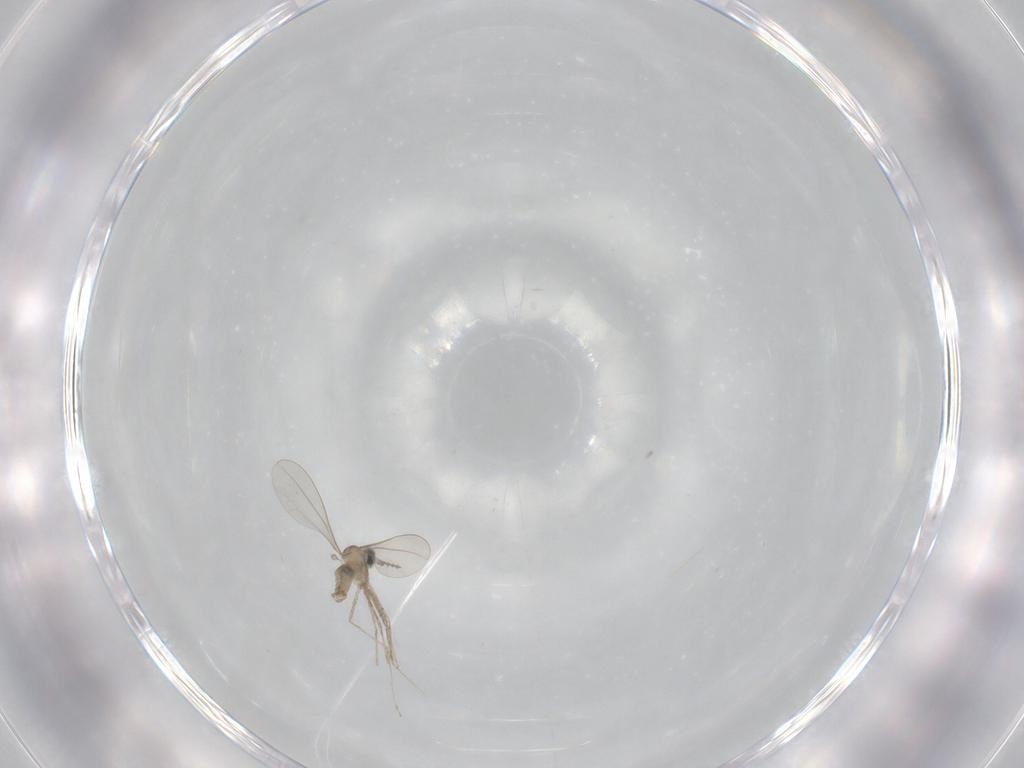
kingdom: Animalia
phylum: Arthropoda
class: Insecta
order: Diptera
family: Cecidomyiidae
